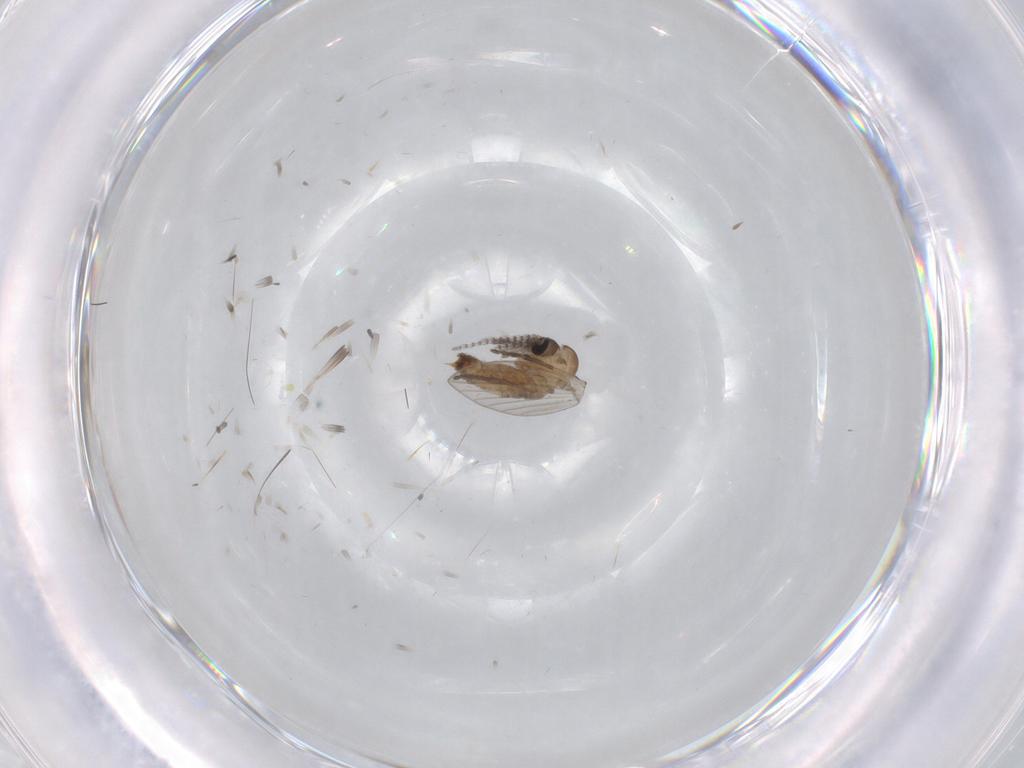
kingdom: Animalia
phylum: Arthropoda
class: Insecta
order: Diptera
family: Psychodidae
